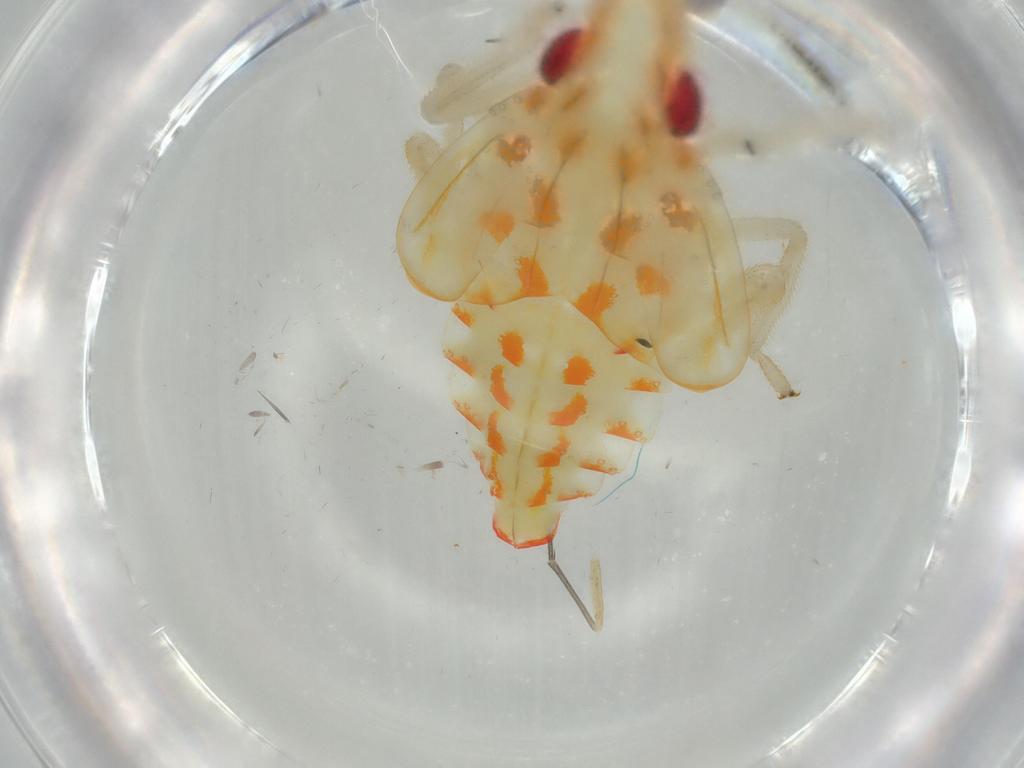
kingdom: Animalia
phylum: Arthropoda
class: Insecta
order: Hemiptera
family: Tropiduchidae
